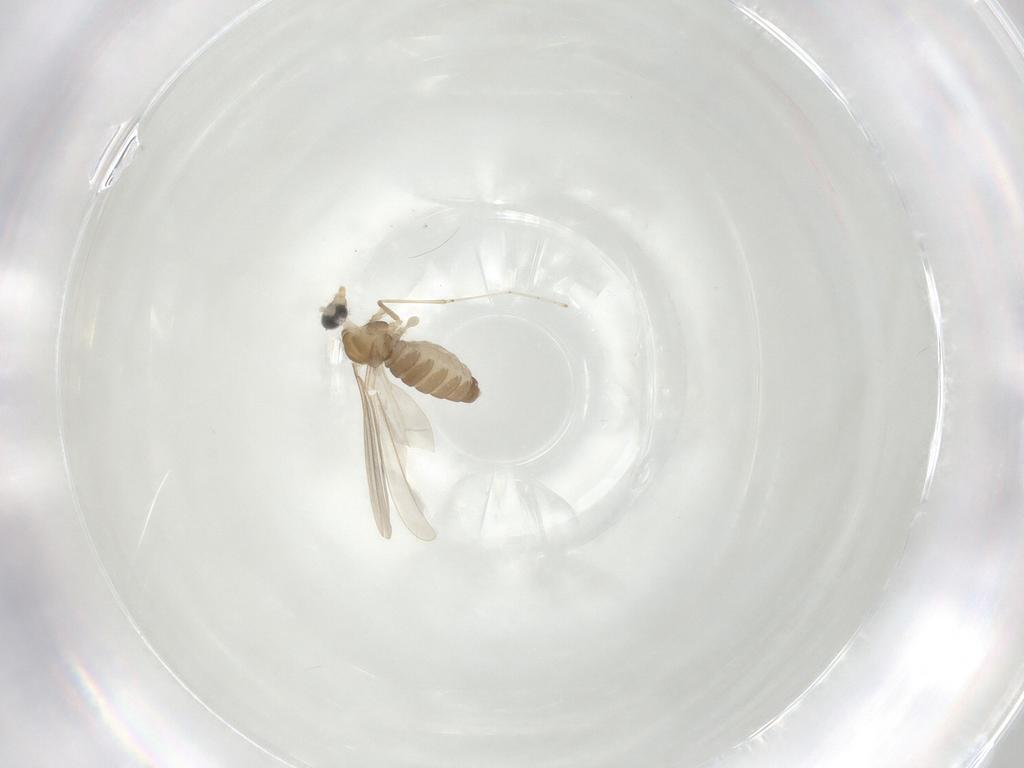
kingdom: Animalia
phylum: Arthropoda
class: Insecta
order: Diptera
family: Cecidomyiidae
